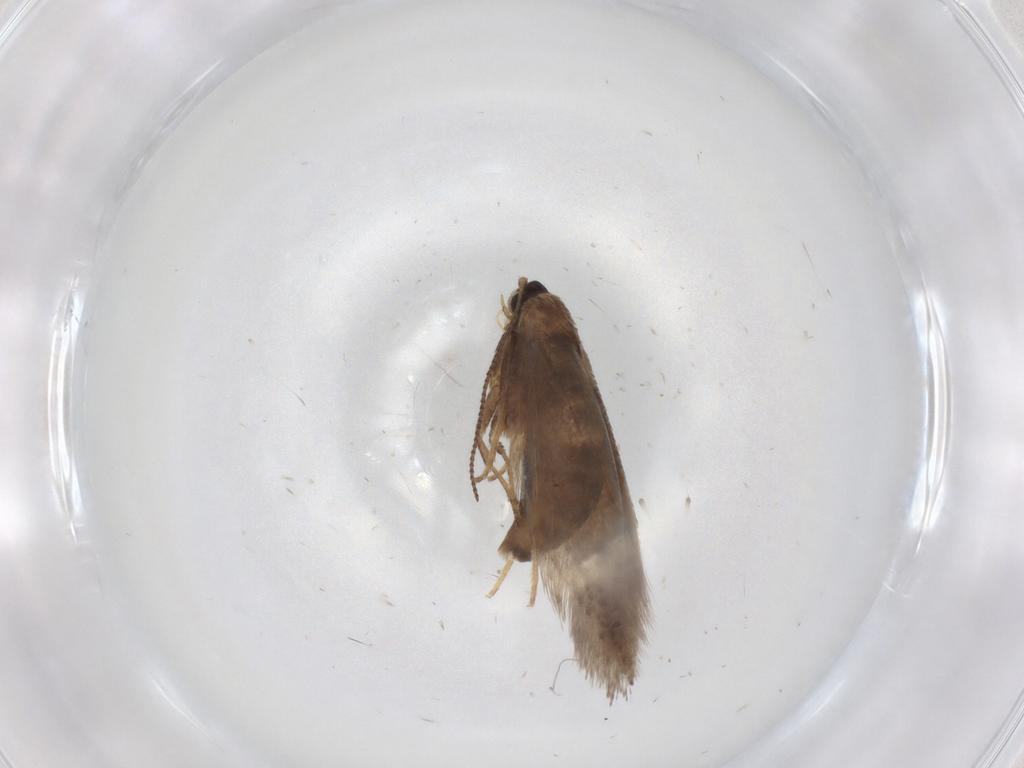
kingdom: Animalia
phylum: Arthropoda
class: Insecta
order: Lepidoptera
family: Nepticulidae
